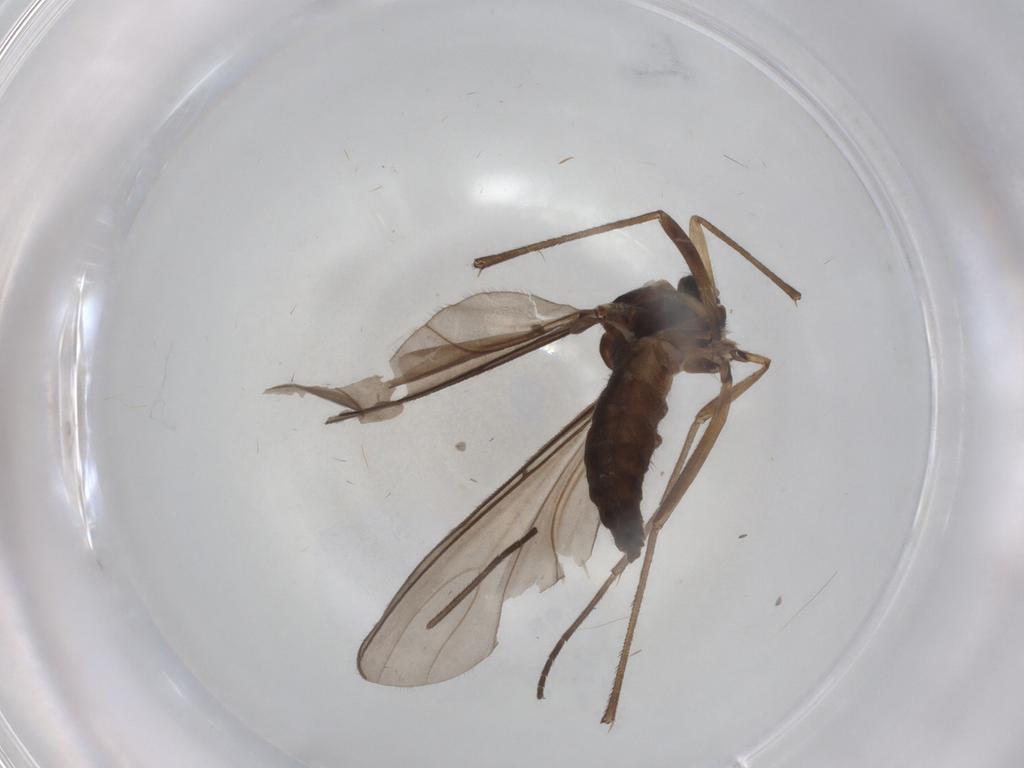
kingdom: Animalia
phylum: Arthropoda
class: Insecta
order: Diptera
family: Sciaridae
